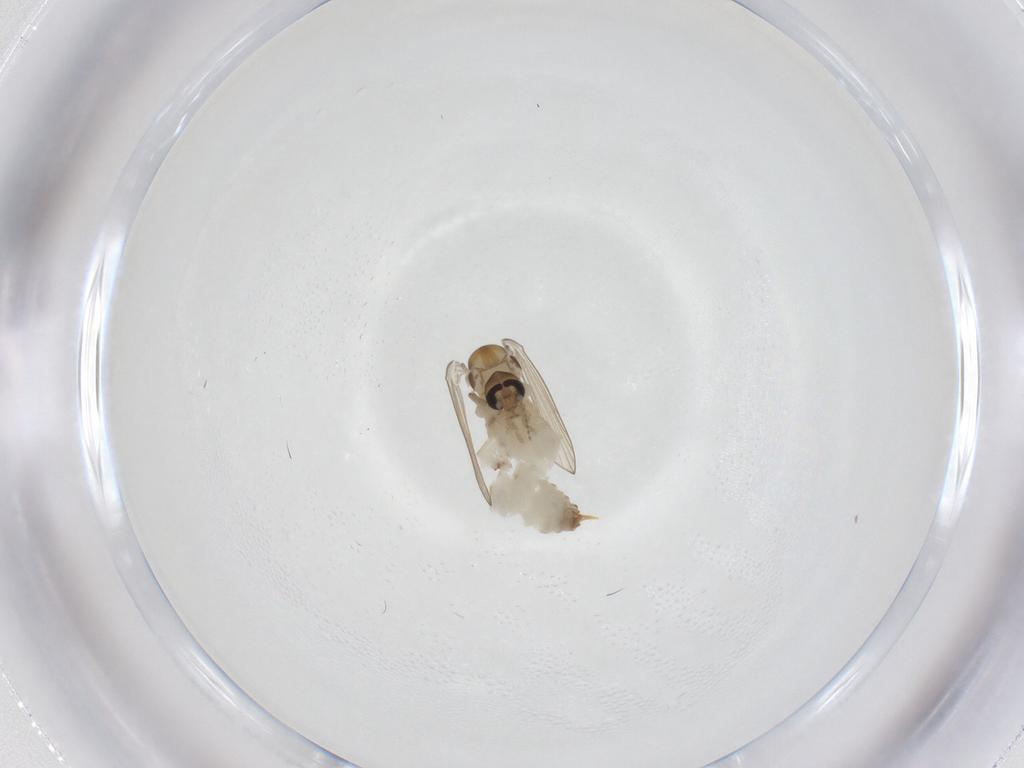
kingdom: Animalia
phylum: Arthropoda
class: Insecta
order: Diptera
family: Psychodidae
